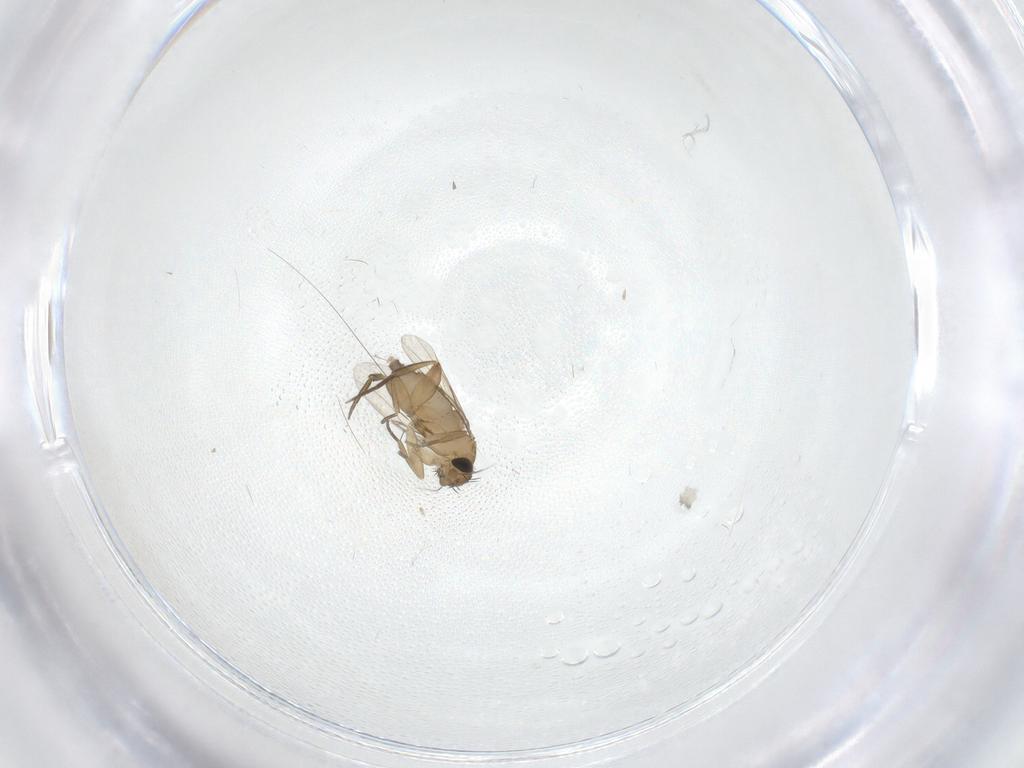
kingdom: Animalia
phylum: Arthropoda
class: Insecta
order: Diptera
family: Phoridae
